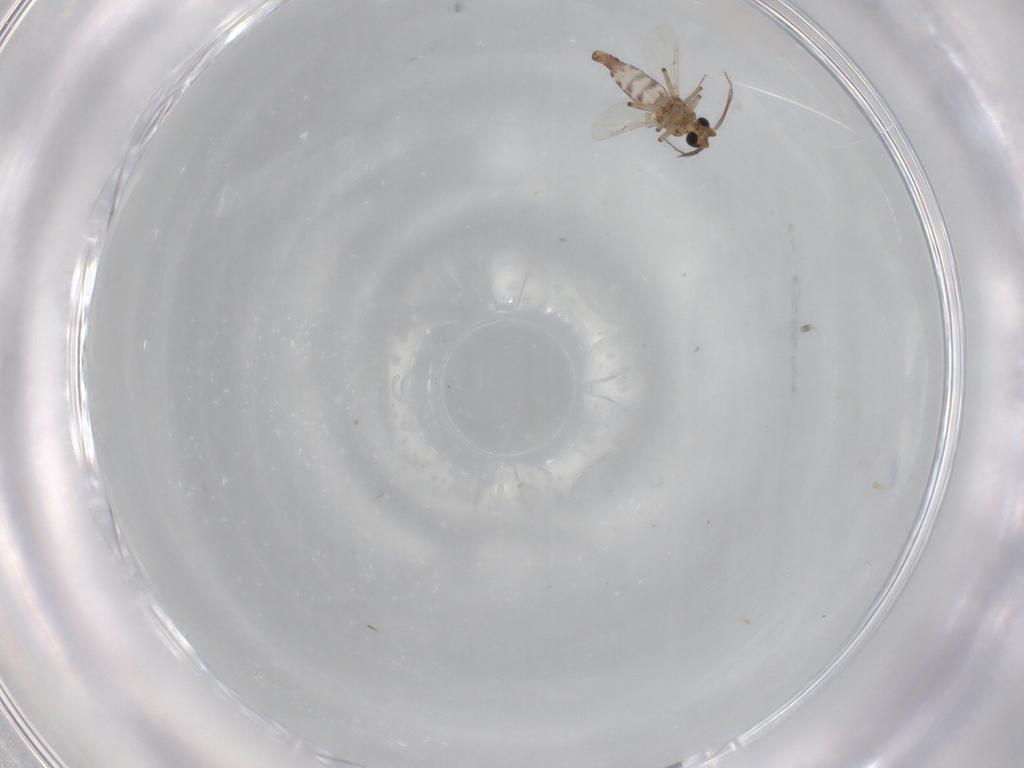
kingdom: Animalia
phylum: Arthropoda
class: Insecta
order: Diptera
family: Ceratopogonidae
